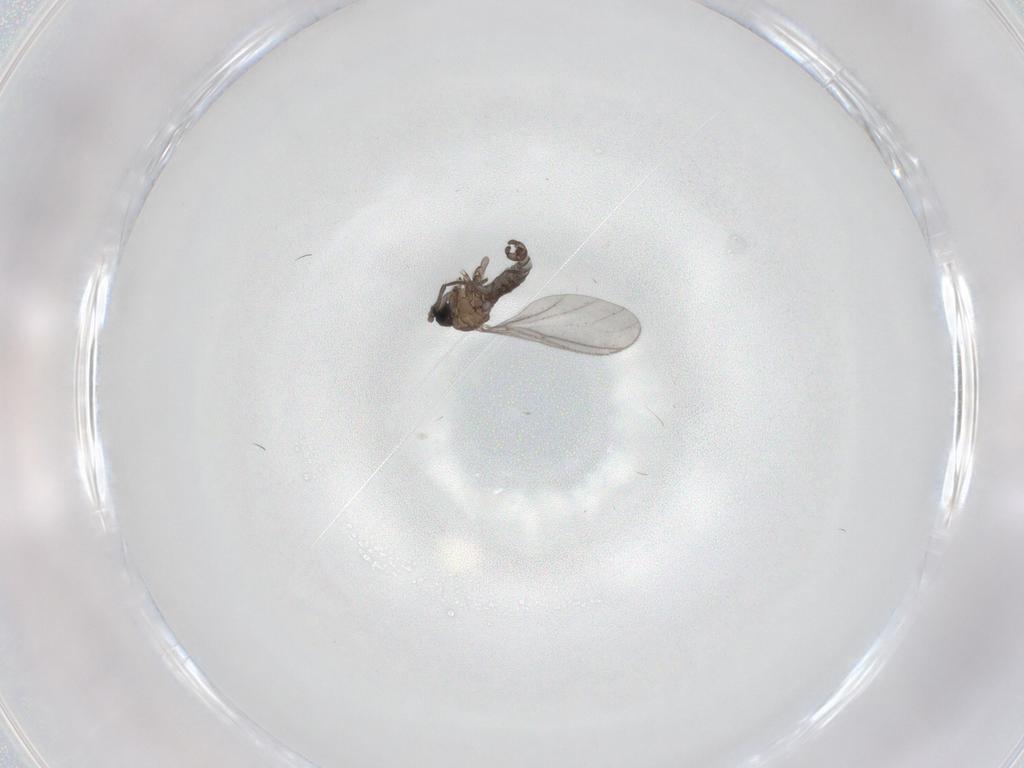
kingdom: Animalia
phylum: Arthropoda
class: Insecta
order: Diptera
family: Sciaridae
